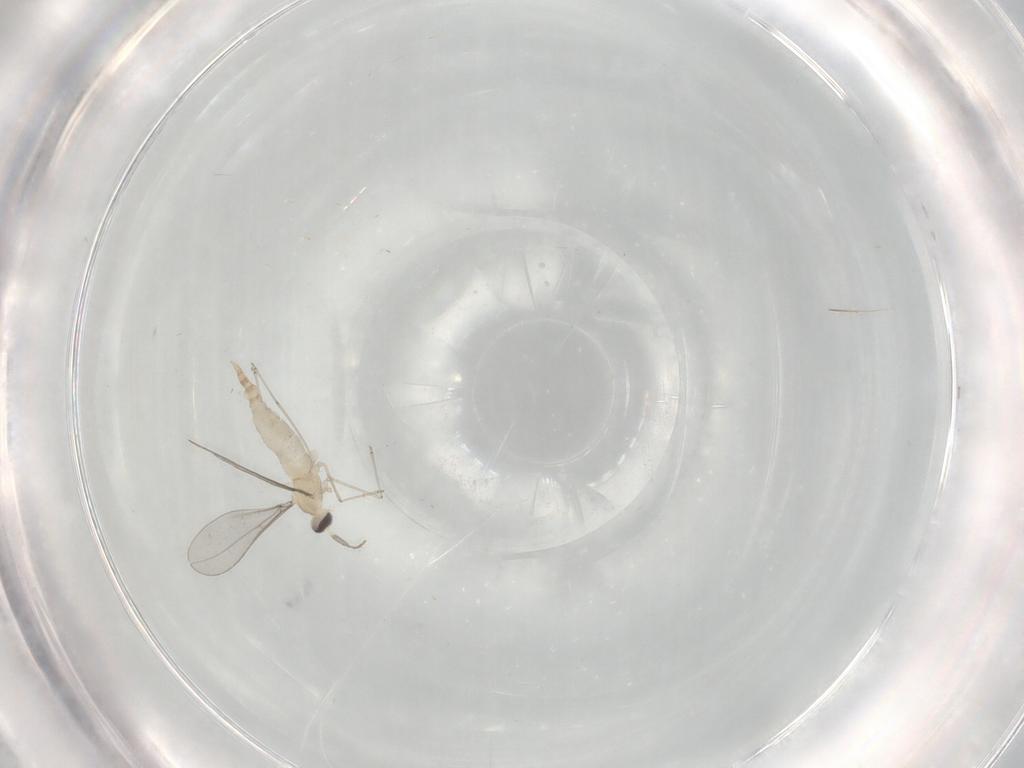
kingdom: Animalia
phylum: Arthropoda
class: Insecta
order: Diptera
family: Cecidomyiidae
